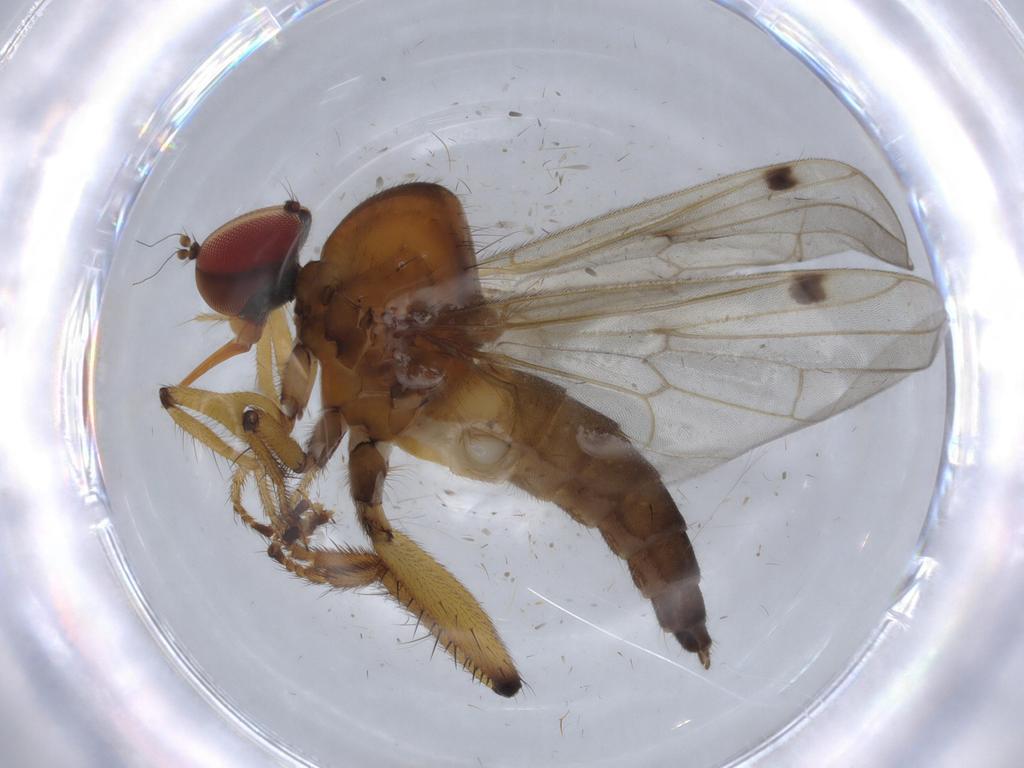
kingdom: Animalia
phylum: Arthropoda
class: Insecta
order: Diptera
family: Hybotidae
